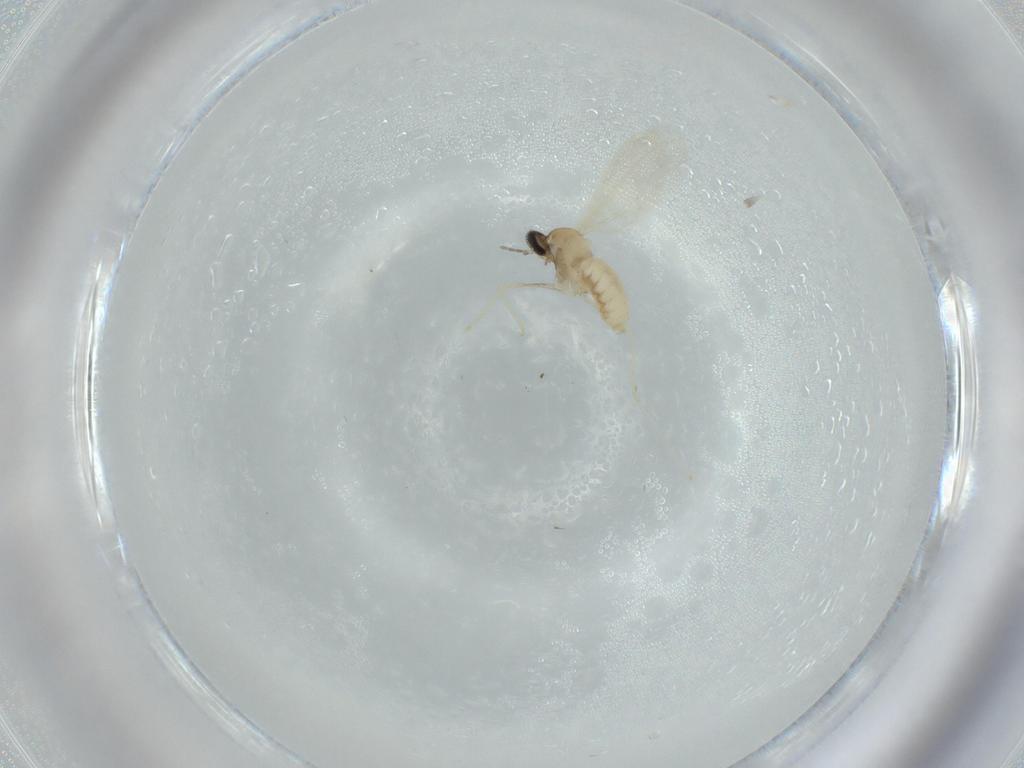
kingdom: Animalia
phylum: Arthropoda
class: Insecta
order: Diptera
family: Cecidomyiidae
